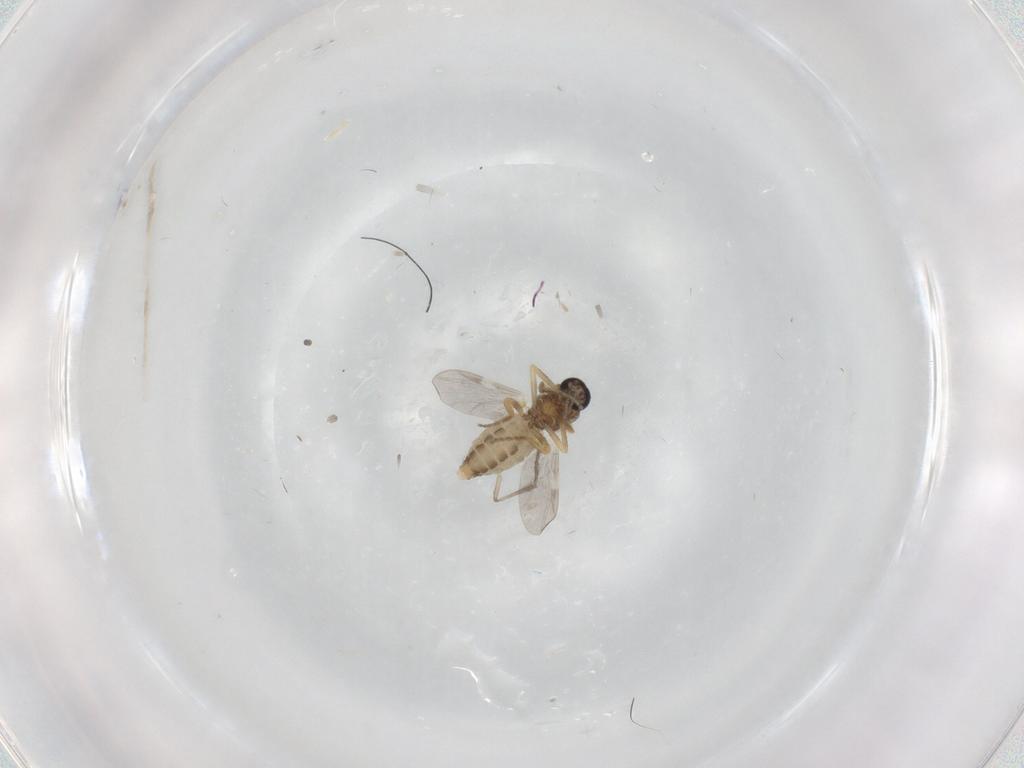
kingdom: Animalia
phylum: Arthropoda
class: Insecta
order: Diptera
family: Ceratopogonidae
